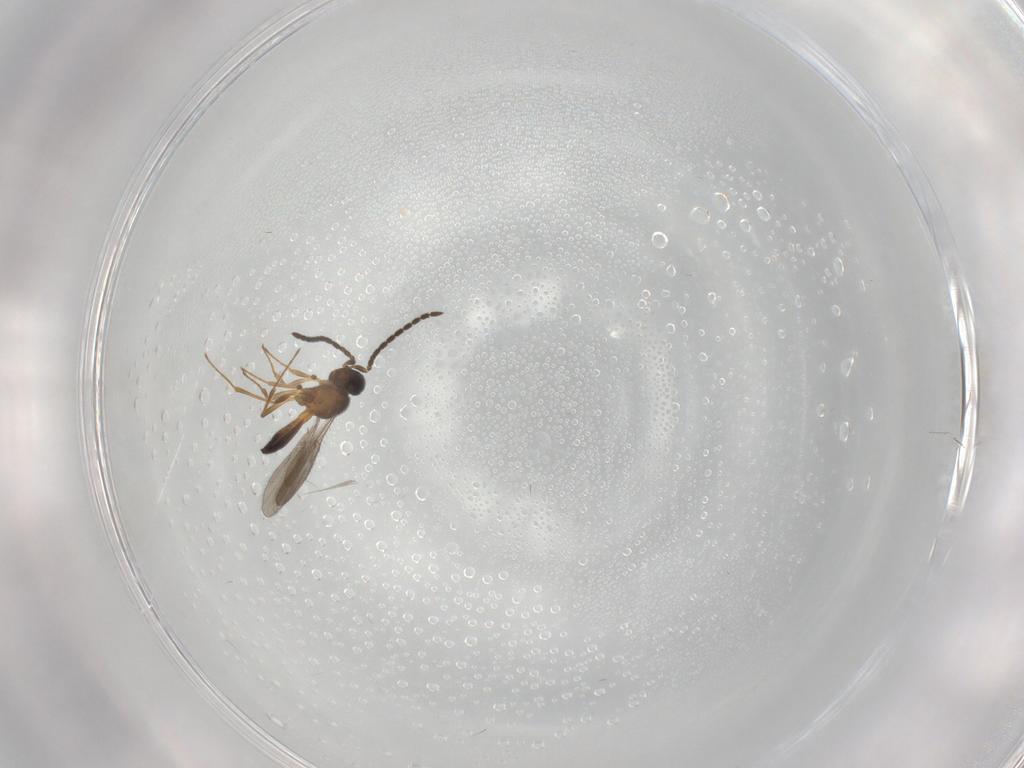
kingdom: Animalia
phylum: Arthropoda
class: Insecta
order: Hymenoptera
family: Scelionidae
